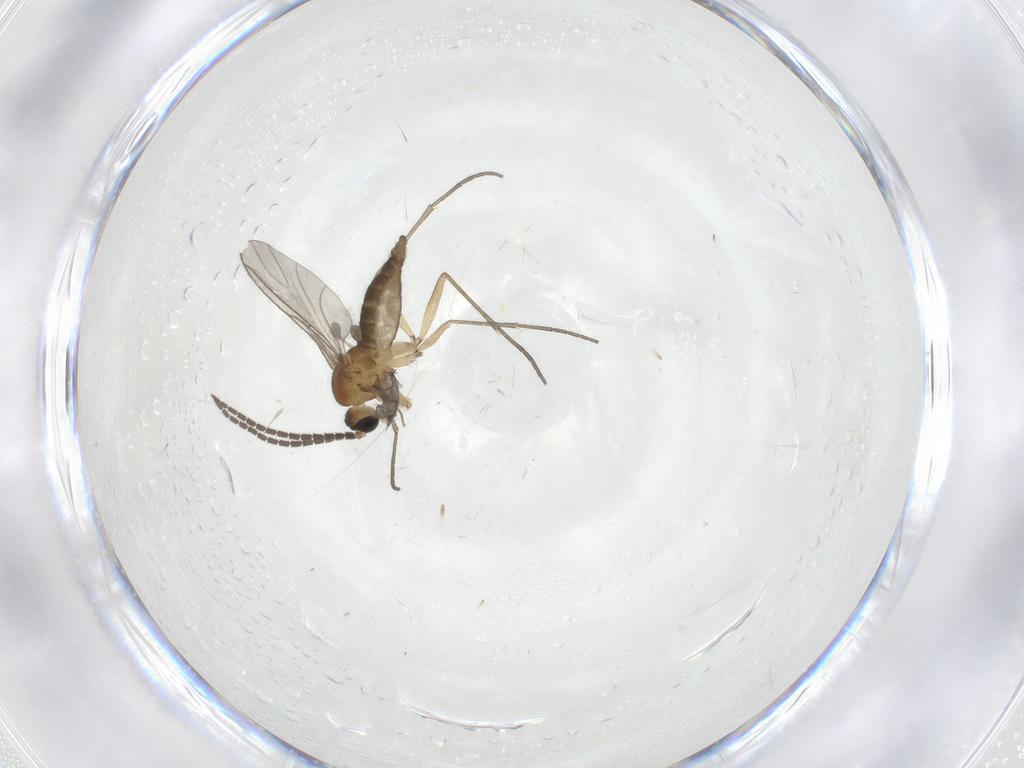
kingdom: Animalia
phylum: Arthropoda
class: Insecta
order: Diptera
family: Sciaridae
